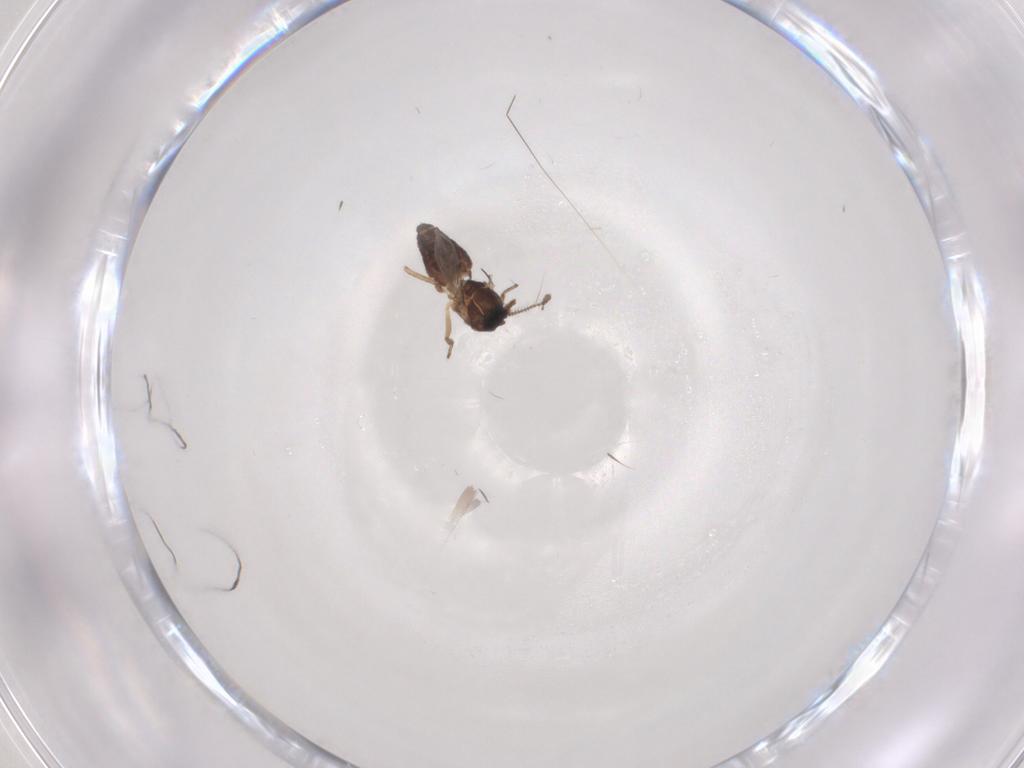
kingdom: Animalia
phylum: Arthropoda
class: Insecta
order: Diptera
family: Ceratopogonidae
